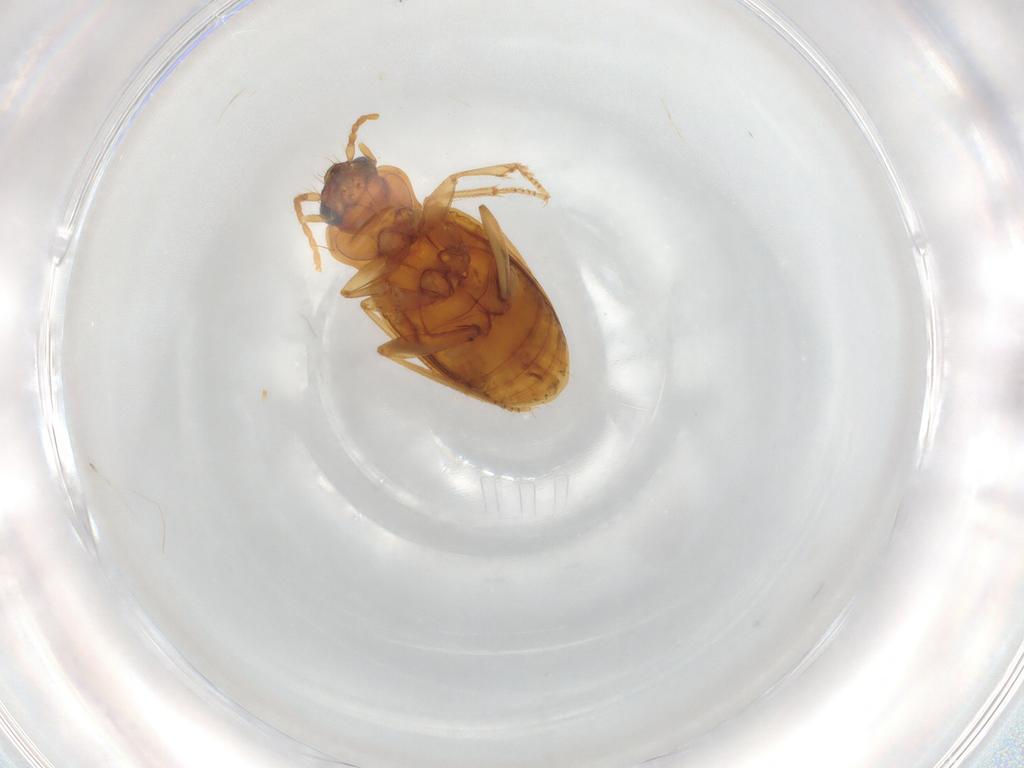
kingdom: Animalia
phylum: Arthropoda
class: Insecta
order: Coleoptera
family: Carabidae
